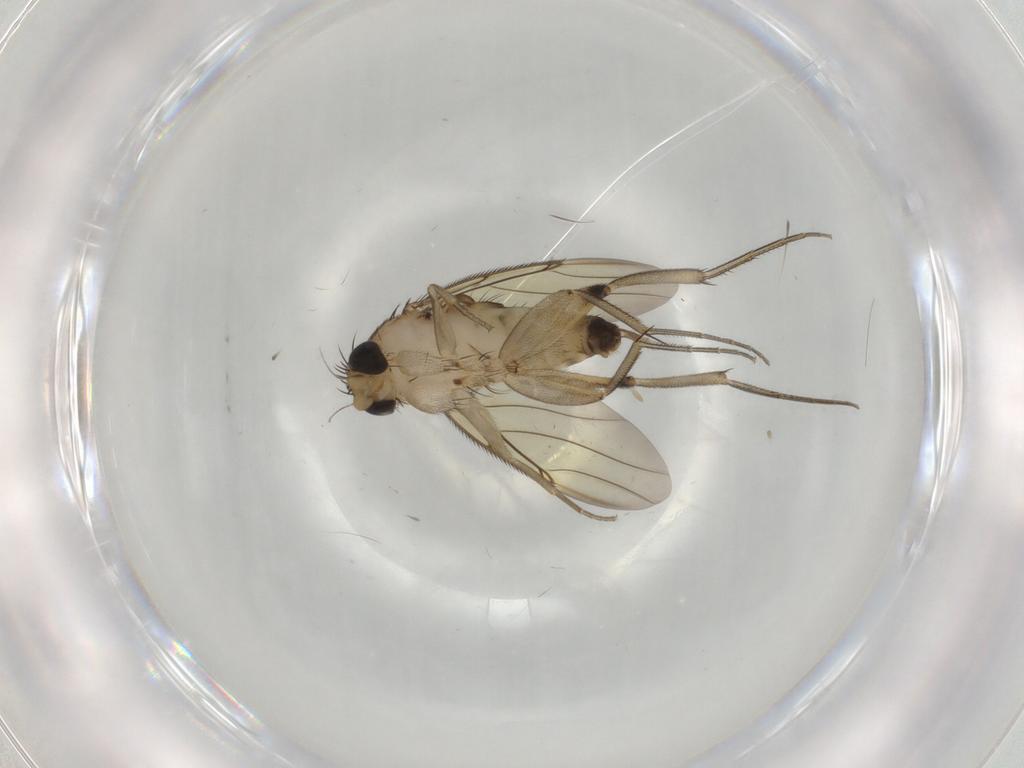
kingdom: Animalia
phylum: Arthropoda
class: Insecta
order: Diptera
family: Phoridae
